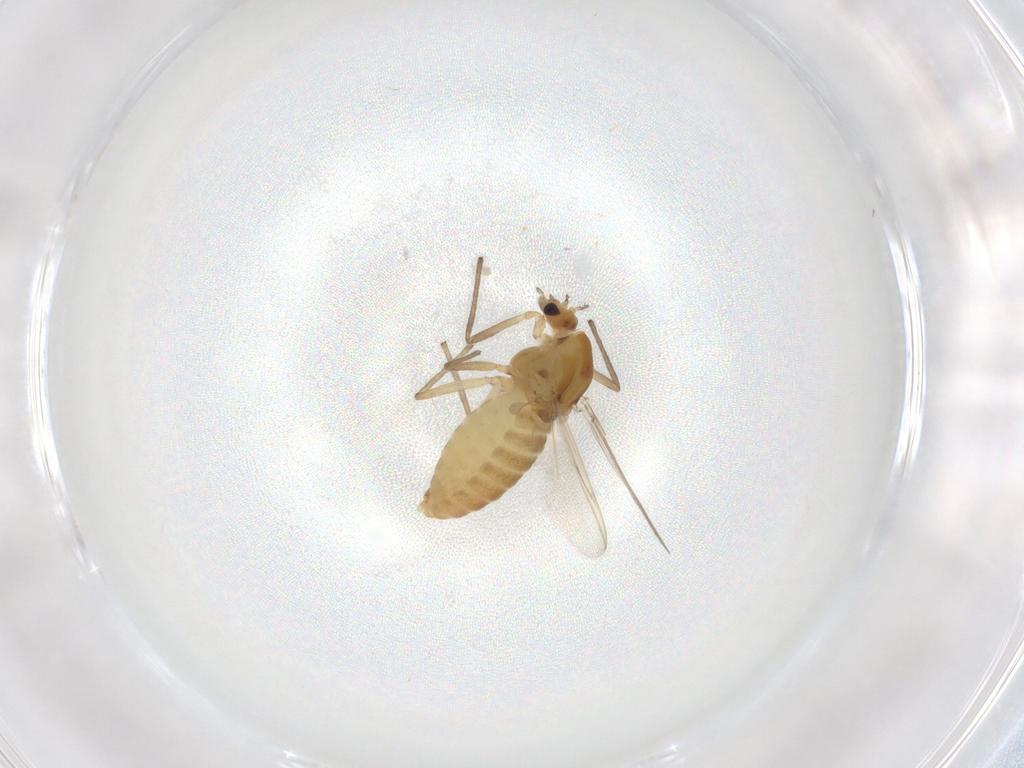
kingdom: Animalia
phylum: Arthropoda
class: Insecta
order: Diptera
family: Chironomidae
